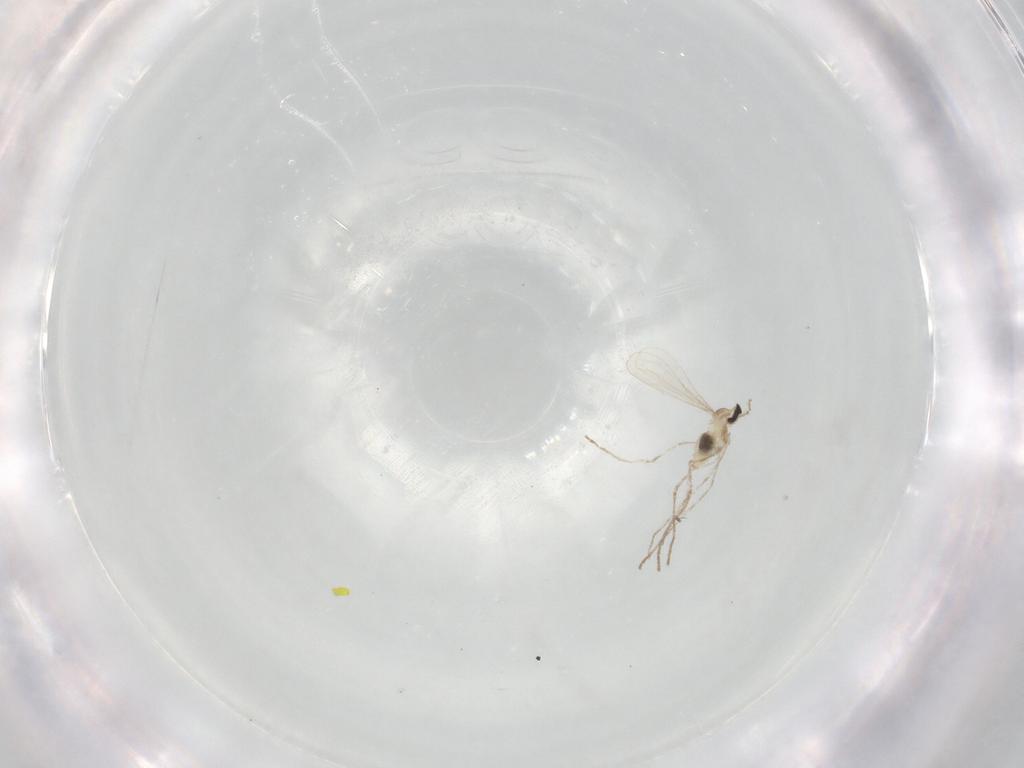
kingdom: Animalia
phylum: Arthropoda
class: Insecta
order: Diptera
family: Cecidomyiidae
